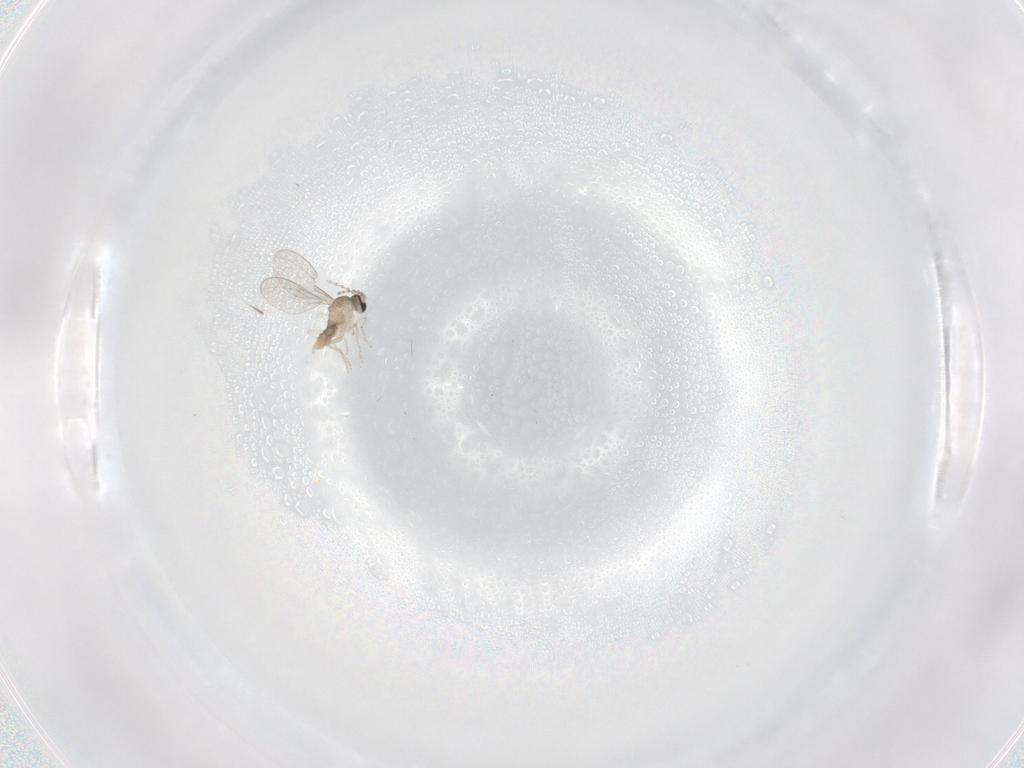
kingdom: Animalia
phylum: Arthropoda
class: Insecta
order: Diptera
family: Cecidomyiidae
